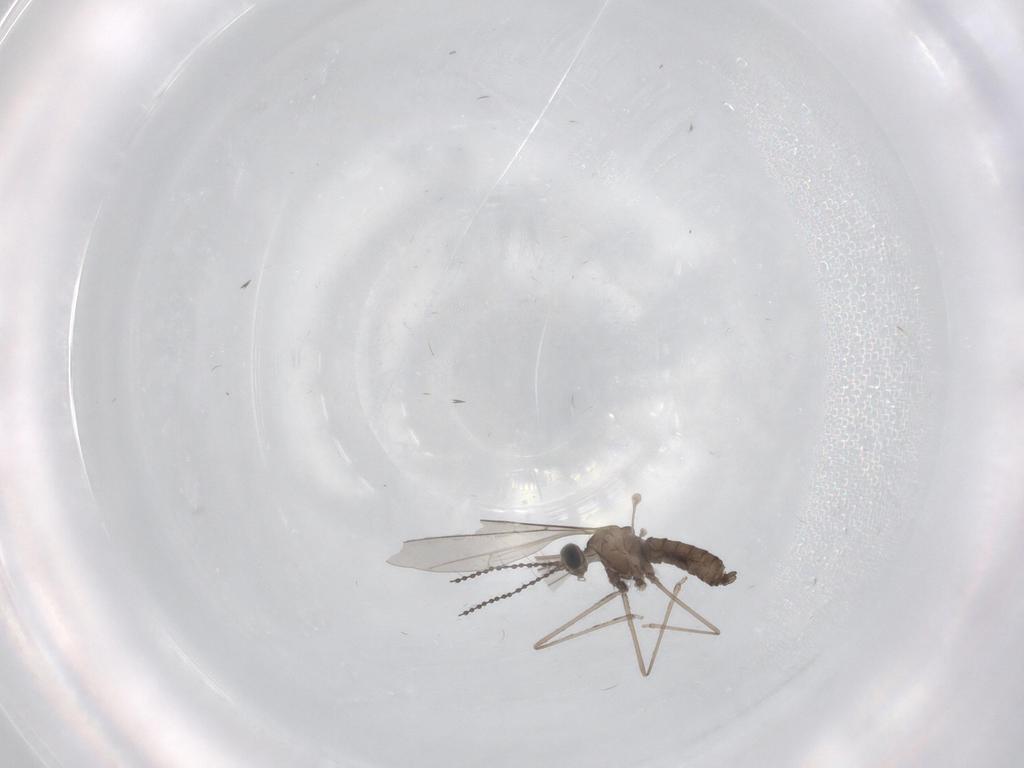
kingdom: Animalia
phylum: Arthropoda
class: Insecta
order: Diptera
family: Cecidomyiidae
